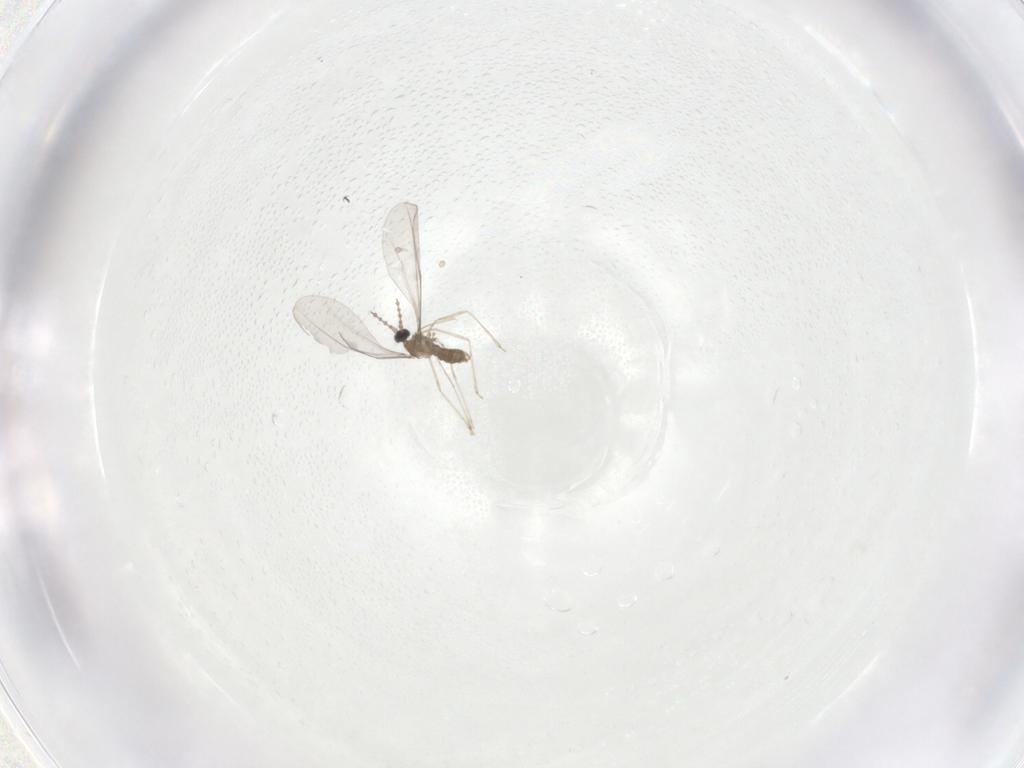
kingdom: Animalia
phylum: Arthropoda
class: Insecta
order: Diptera
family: Cecidomyiidae
